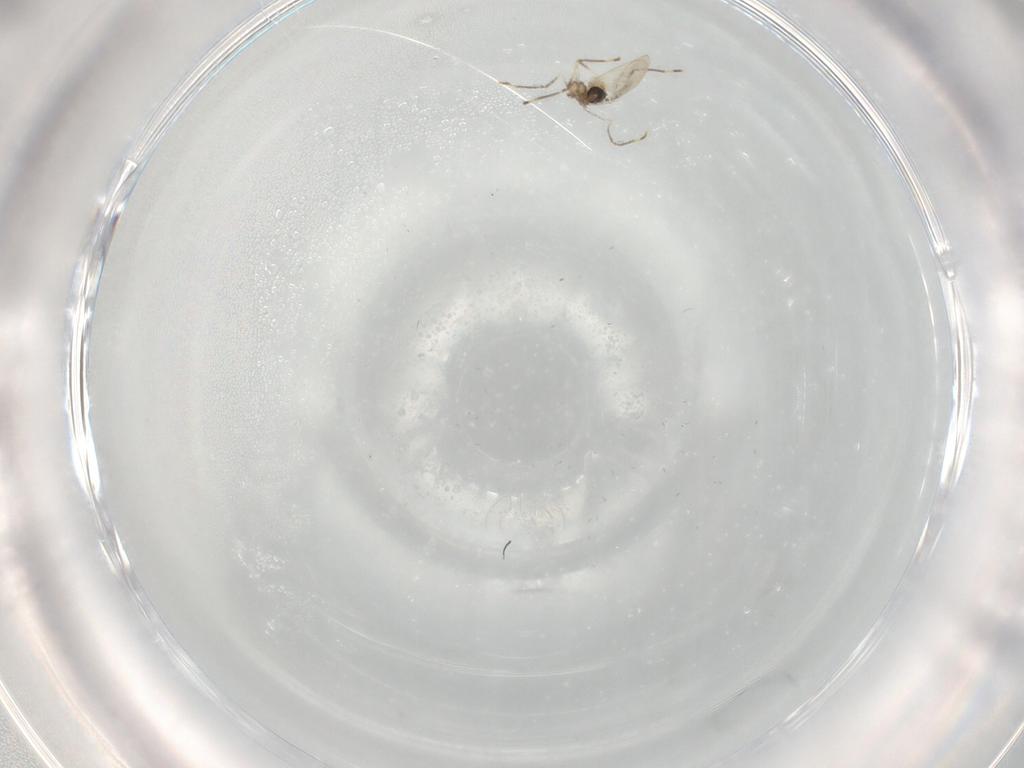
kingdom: Animalia
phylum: Arthropoda
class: Insecta
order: Diptera
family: Cecidomyiidae
